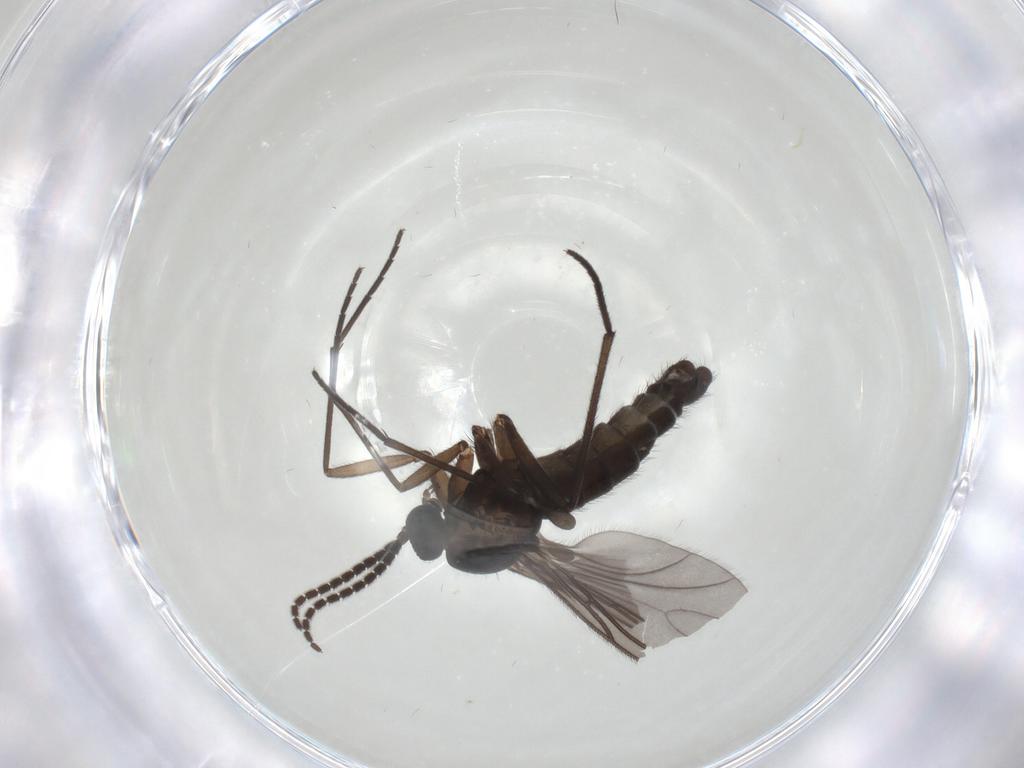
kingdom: Animalia
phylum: Arthropoda
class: Insecta
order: Diptera
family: Sciaridae
